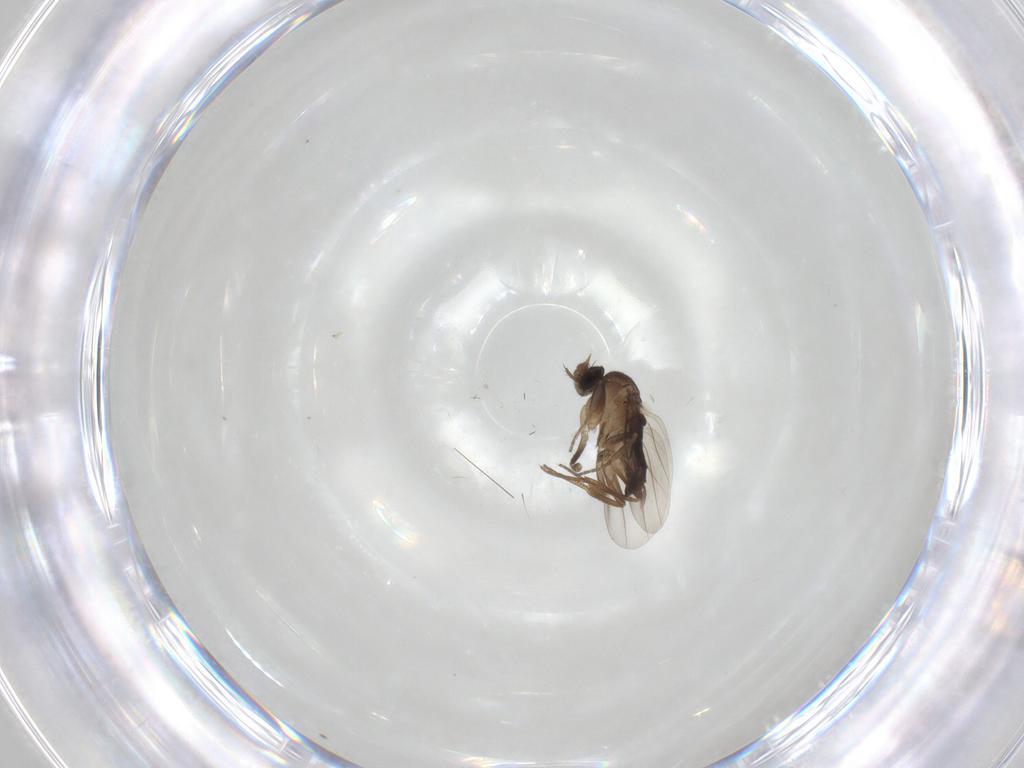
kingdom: Animalia
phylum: Arthropoda
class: Insecta
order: Diptera
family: Phoridae
